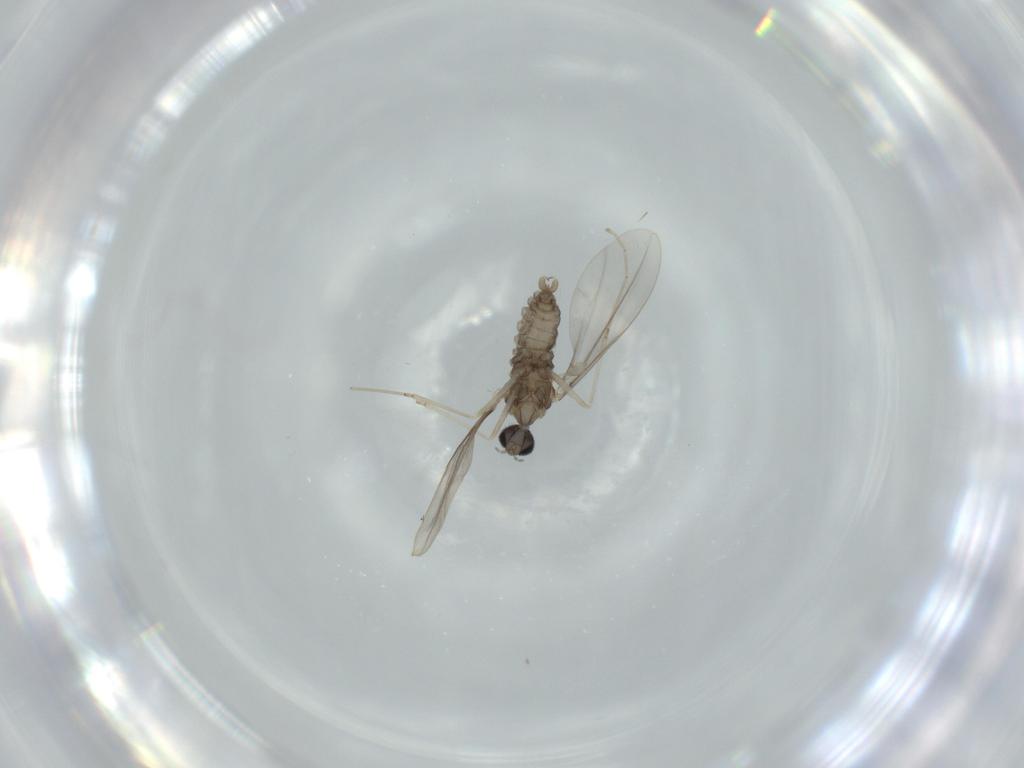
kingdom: Animalia
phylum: Arthropoda
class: Insecta
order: Diptera
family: Cecidomyiidae
